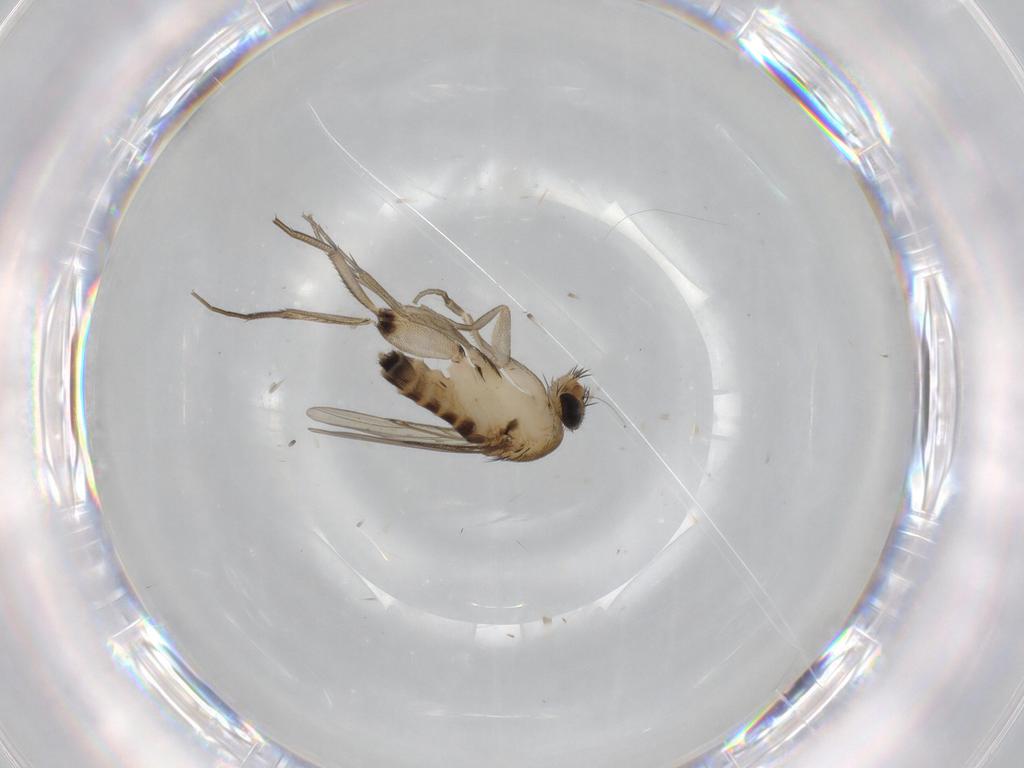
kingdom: Animalia
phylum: Arthropoda
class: Insecta
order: Diptera
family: Phoridae
